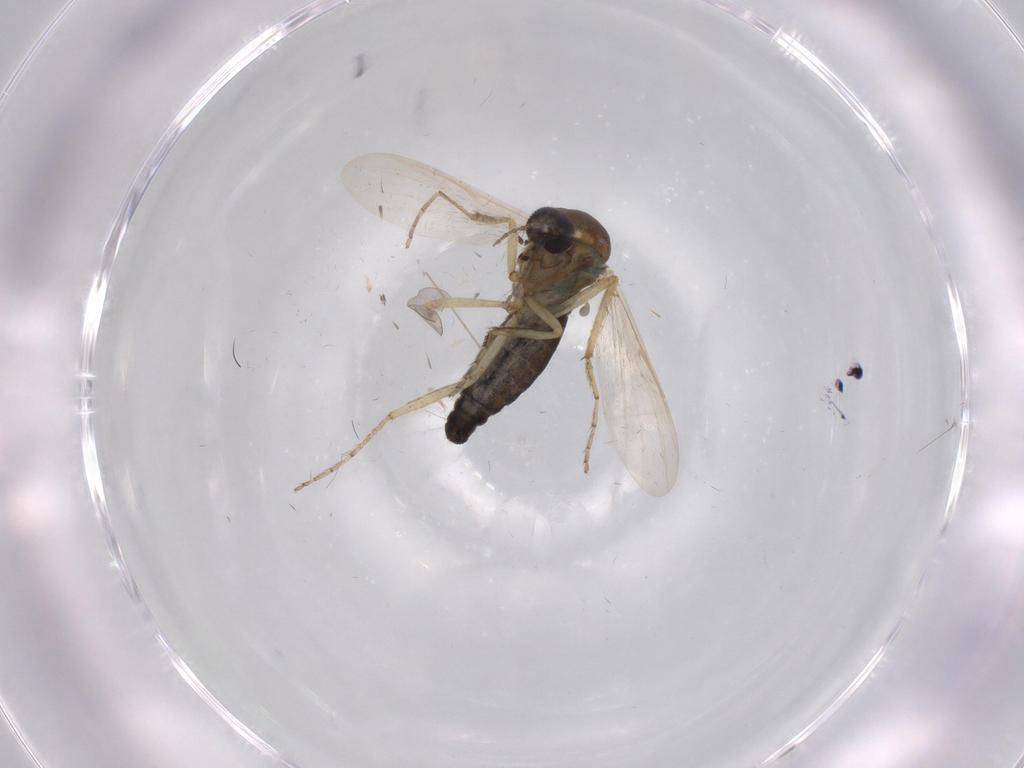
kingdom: Animalia
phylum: Arthropoda
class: Insecta
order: Diptera
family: Ceratopogonidae
